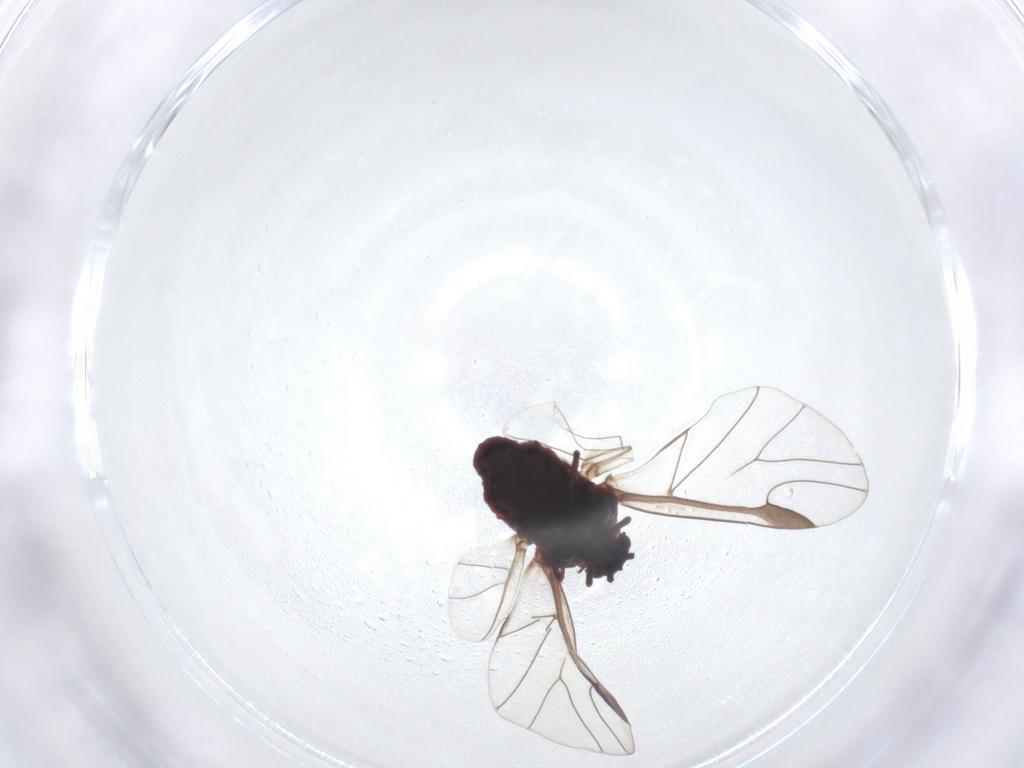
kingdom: Animalia
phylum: Arthropoda
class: Insecta
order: Hemiptera
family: Aphididae
